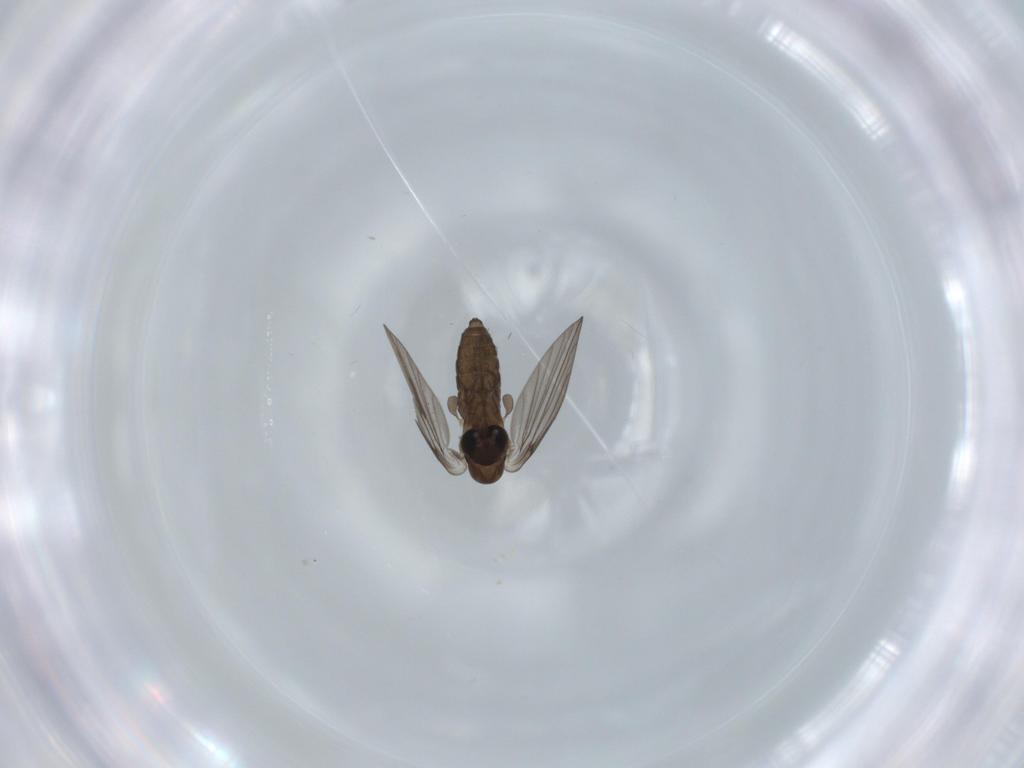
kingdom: Animalia
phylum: Arthropoda
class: Insecta
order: Diptera
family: Psychodidae
